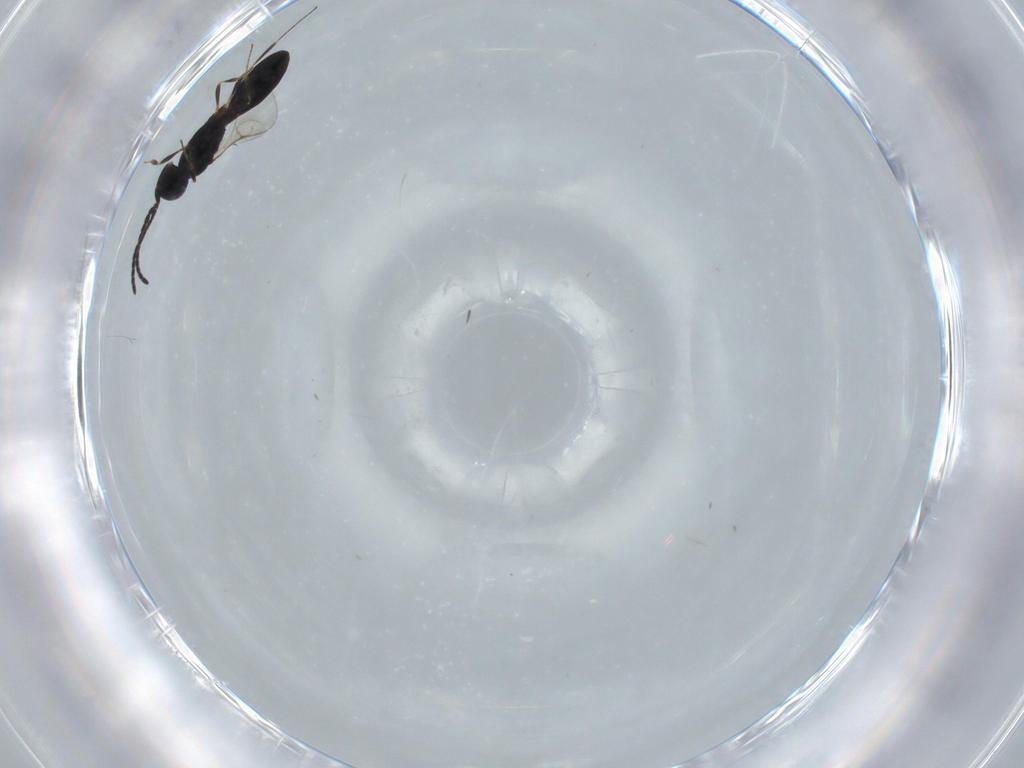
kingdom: Animalia
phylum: Arthropoda
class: Insecta
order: Hymenoptera
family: Scelionidae
